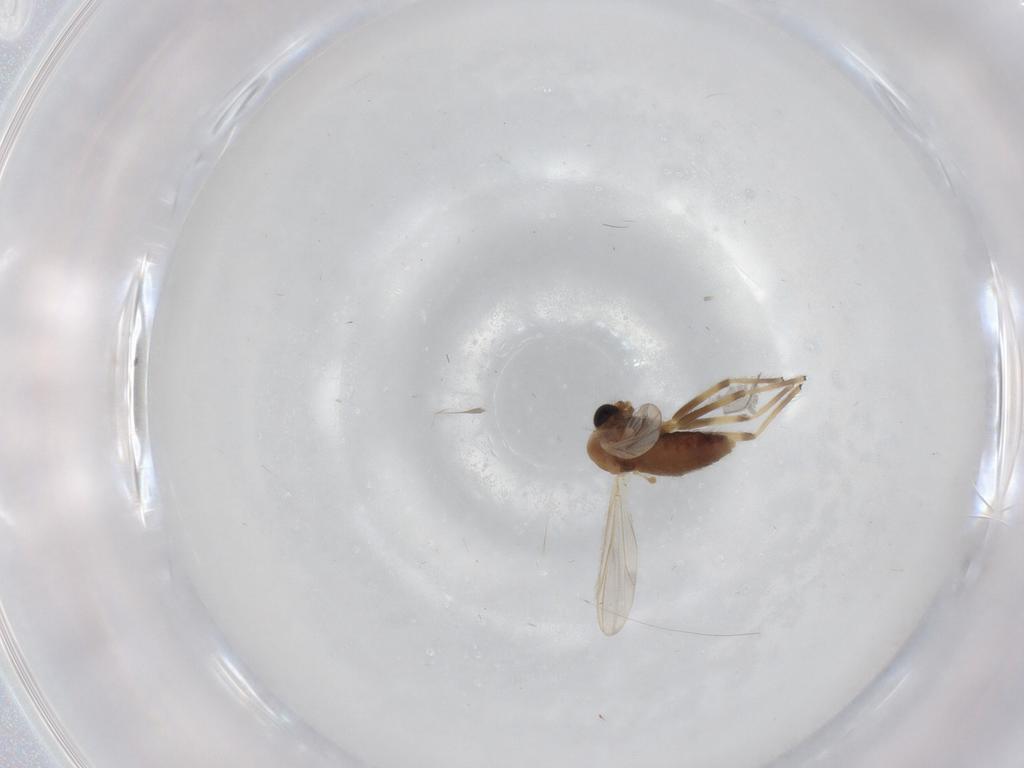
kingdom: Animalia
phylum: Arthropoda
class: Insecta
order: Diptera
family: Chironomidae
